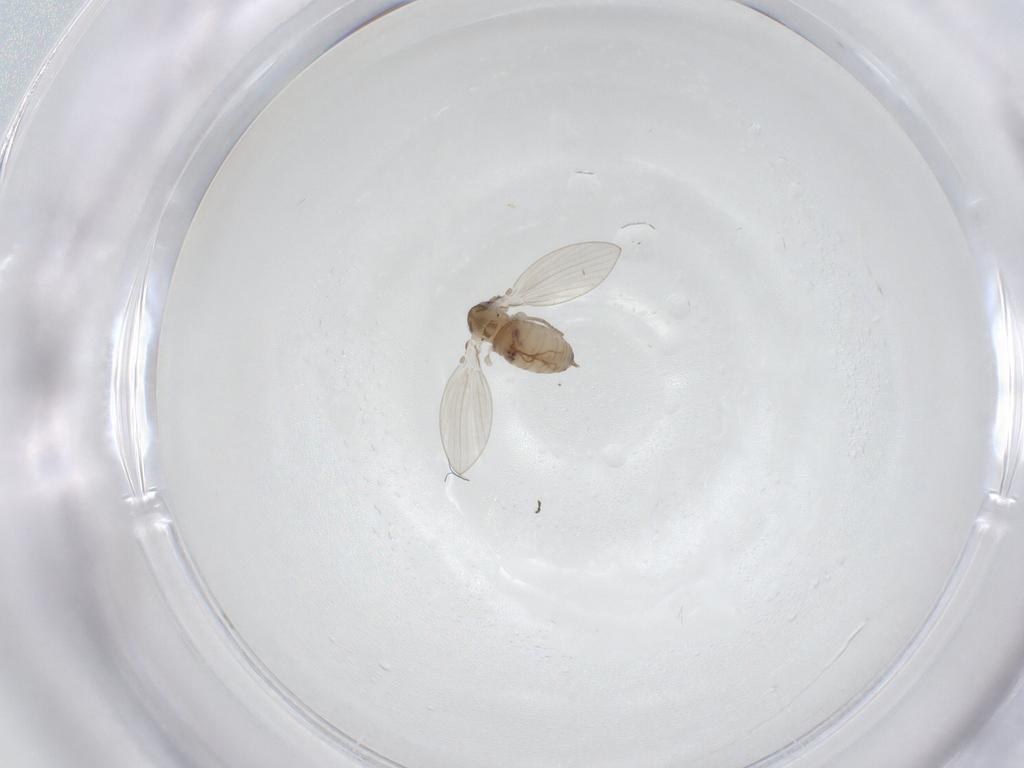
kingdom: Animalia
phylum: Arthropoda
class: Insecta
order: Diptera
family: Psychodidae
